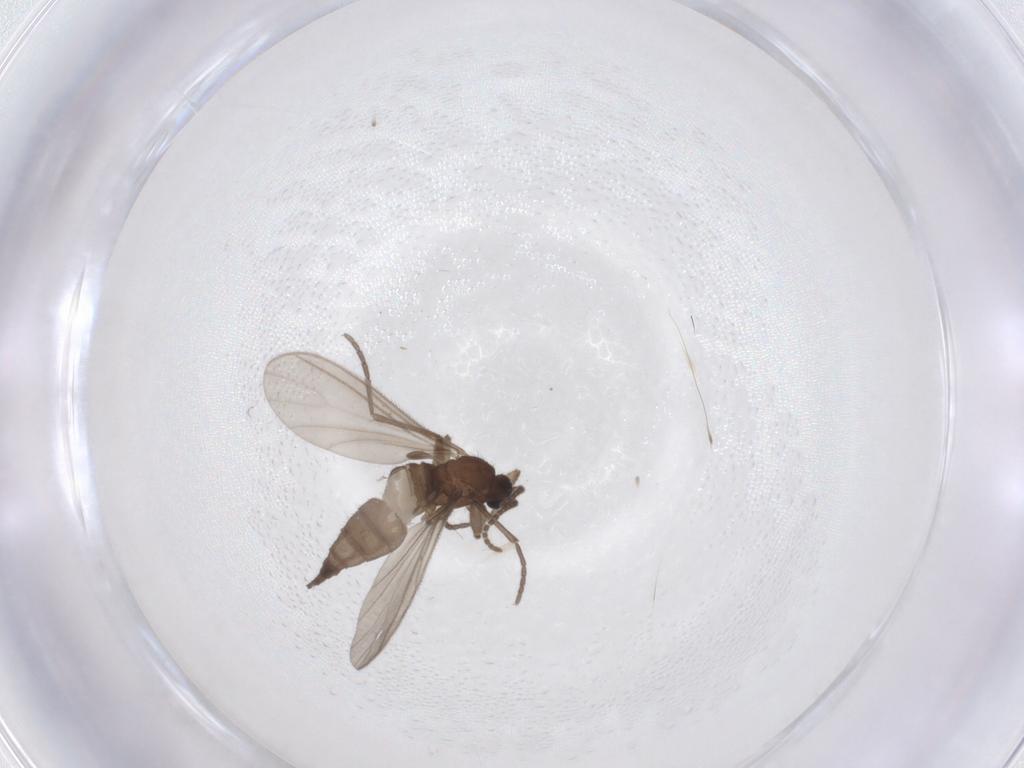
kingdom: Animalia
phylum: Arthropoda
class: Insecta
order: Diptera
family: Sciaridae
